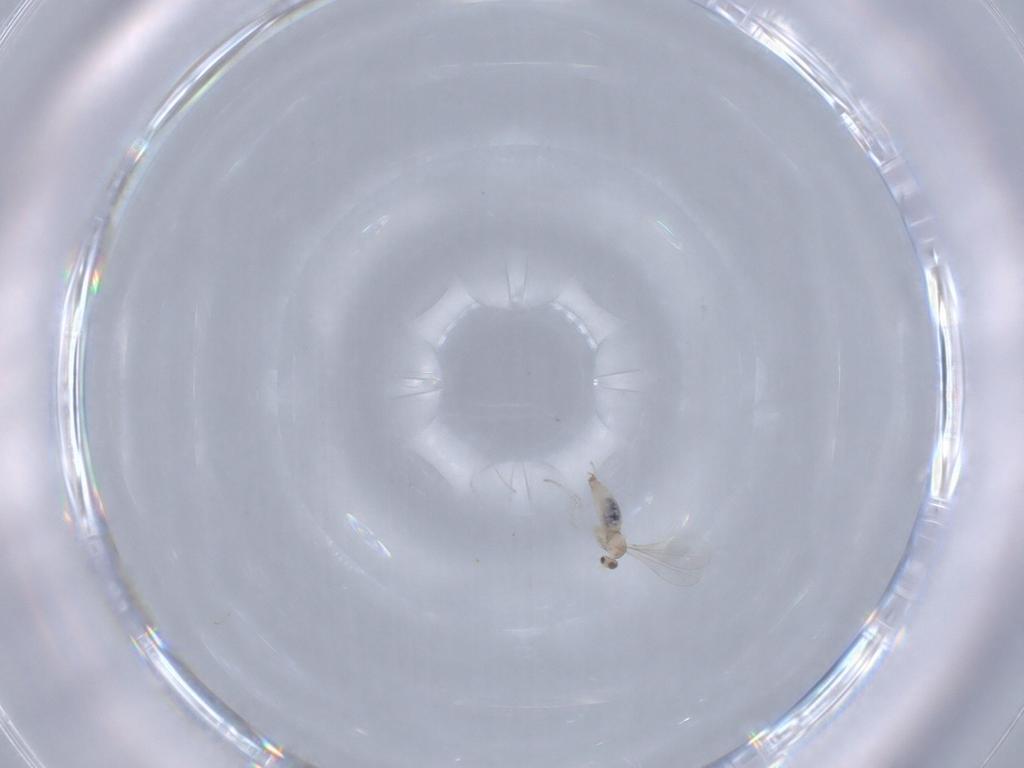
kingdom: Animalia
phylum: Arthropoda
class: Insecta
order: Diptera
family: Cecidomyiidae
